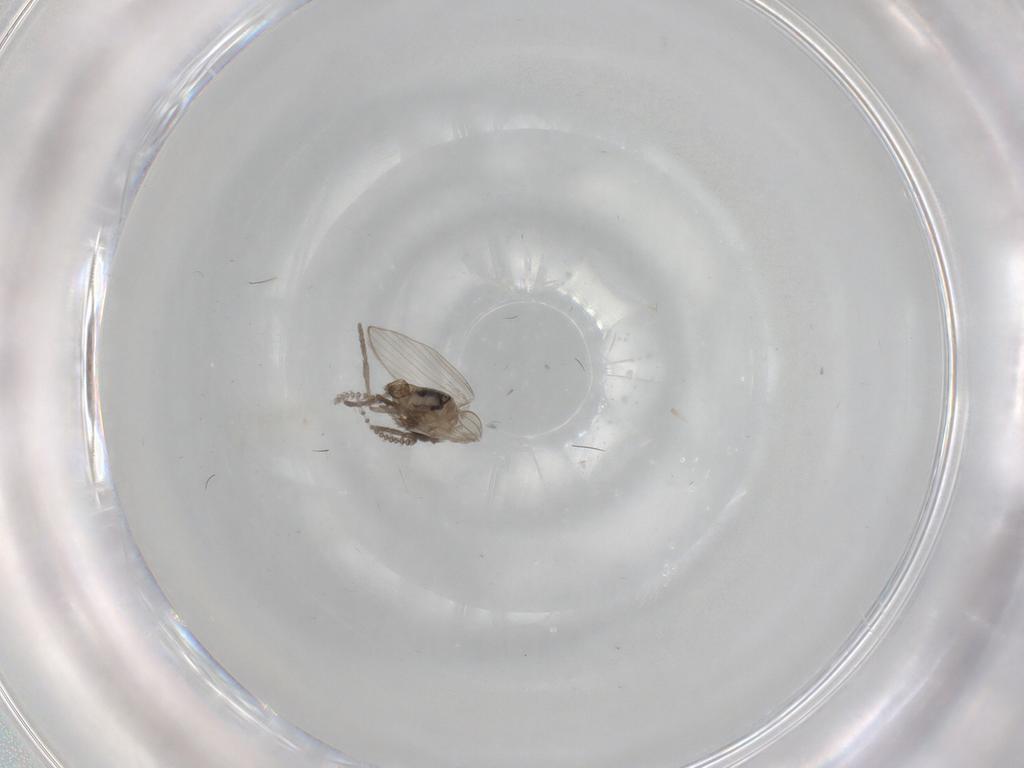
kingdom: Animalia
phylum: Arthropoda
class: Insecta
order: Diptera
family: Psychodidae
